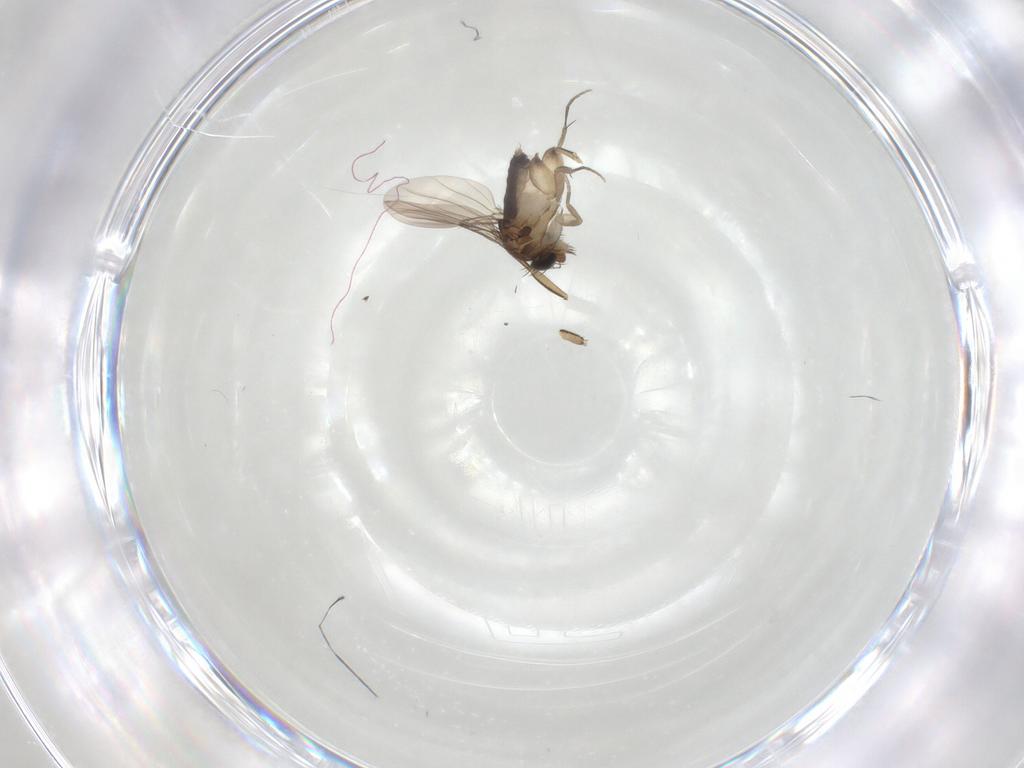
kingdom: Animalia
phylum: Arthropoda
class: Insecta
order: Diptera
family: Phoridae
